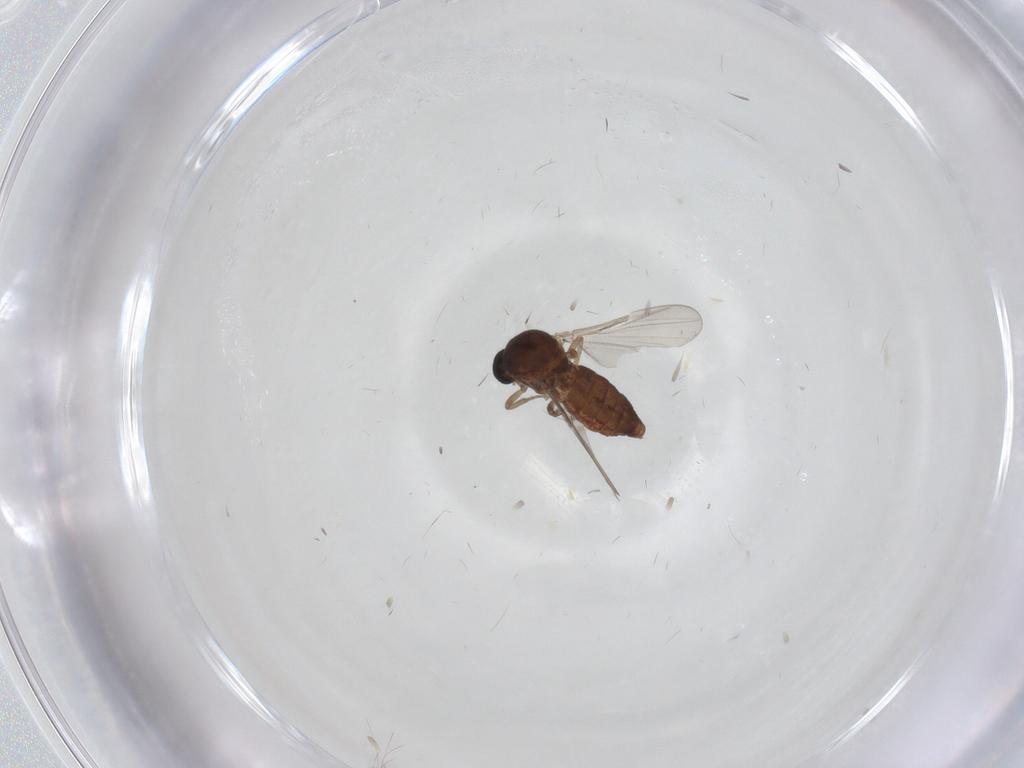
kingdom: Animalia
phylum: Arthropoda
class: Insecta
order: Diptera
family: Ceratopogonidae
